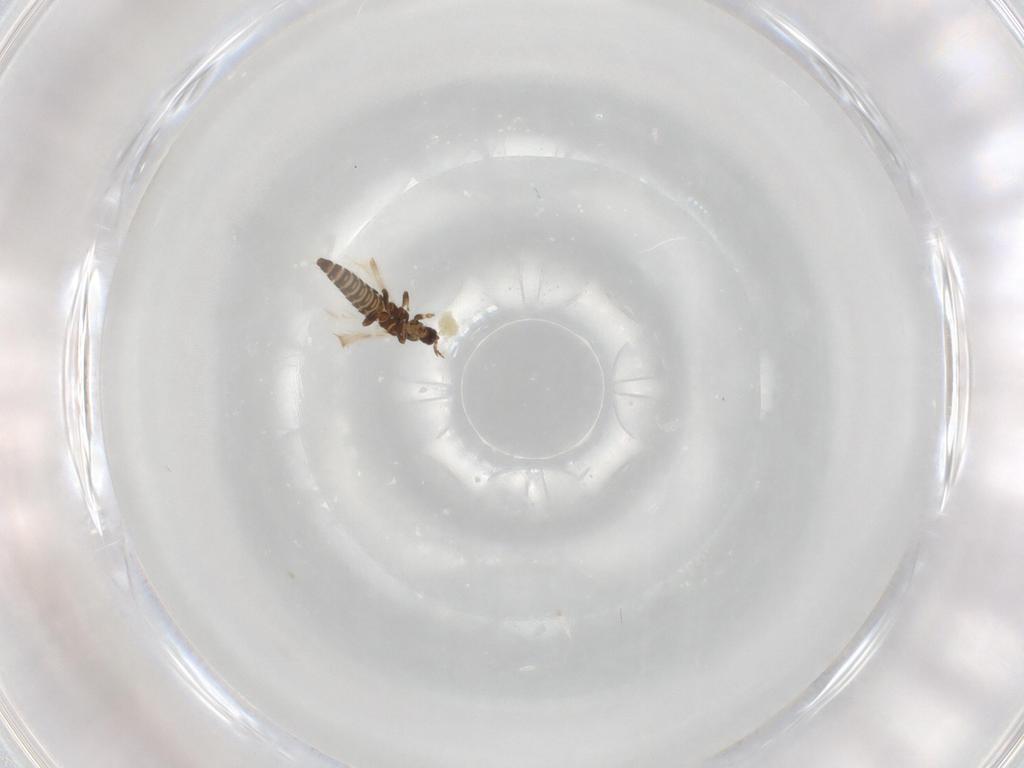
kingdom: Animalia
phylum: Arthropoda
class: Insecta
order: Thysanoptera
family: Thripidae
